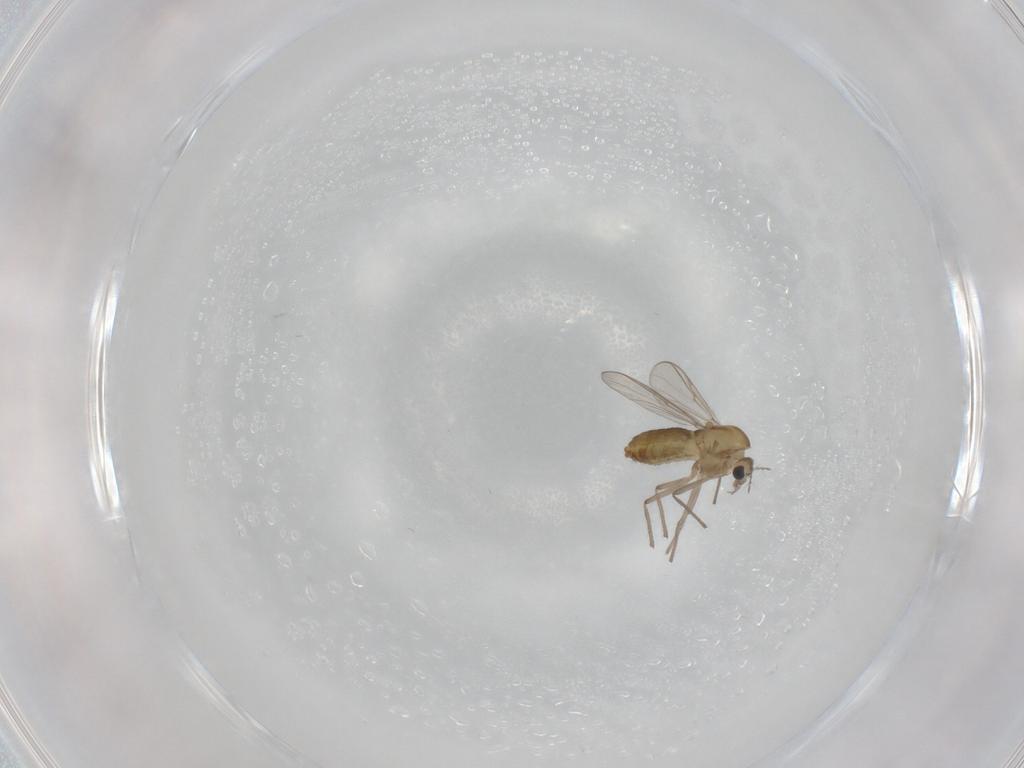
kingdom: Animalia
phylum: Arthropoda
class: Insecta
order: Diptera
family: Chironomidae
